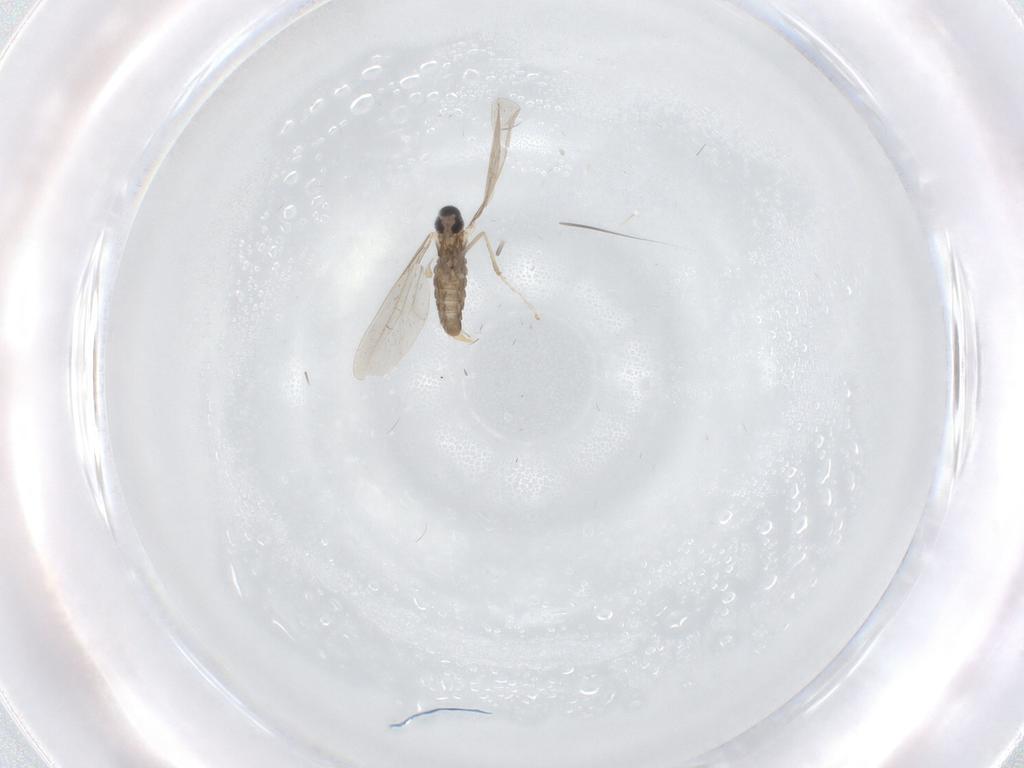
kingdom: Animalia
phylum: Arthropoda
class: Insecta
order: Diptera
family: Cecidomyiidae
